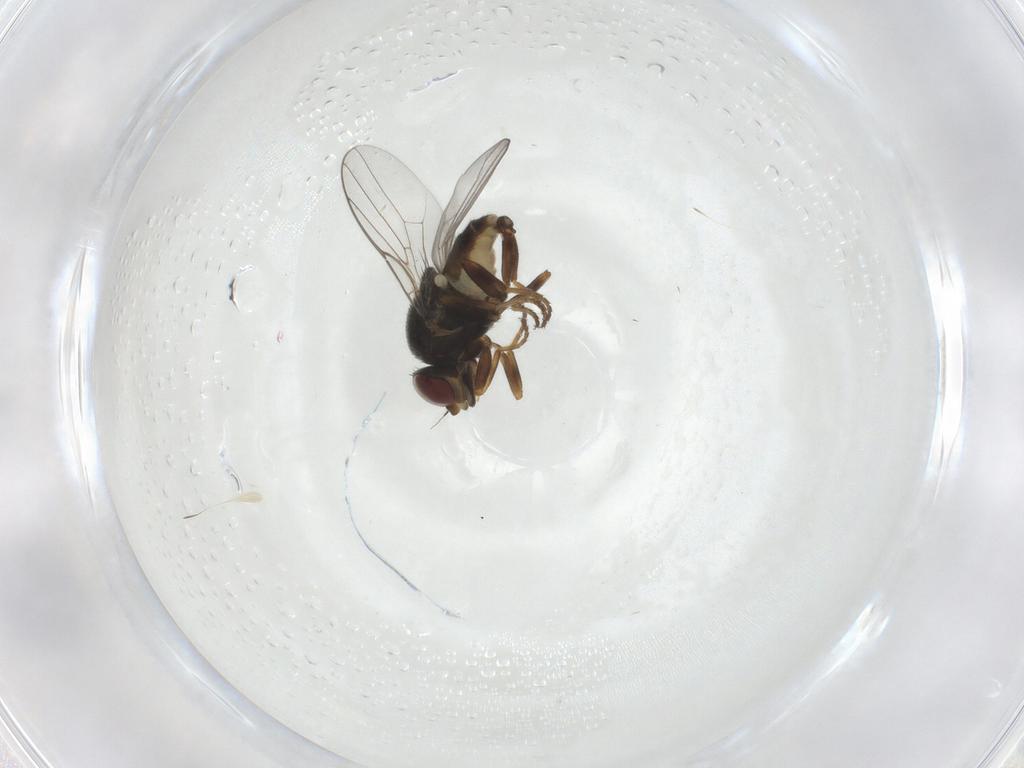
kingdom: Animalia
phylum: Arthropoda
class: Insecta
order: Diptera
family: Chloropidae
